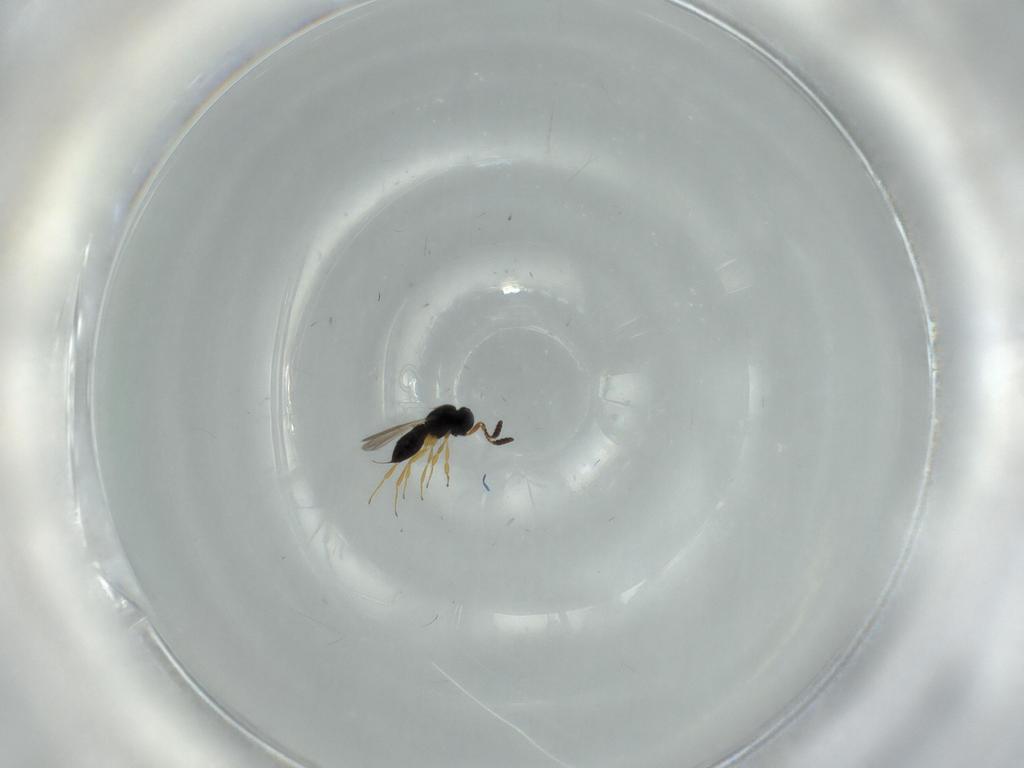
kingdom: Animalia
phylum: Arthropoda
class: Insecta
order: Hymenoptera
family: Scelionidae
